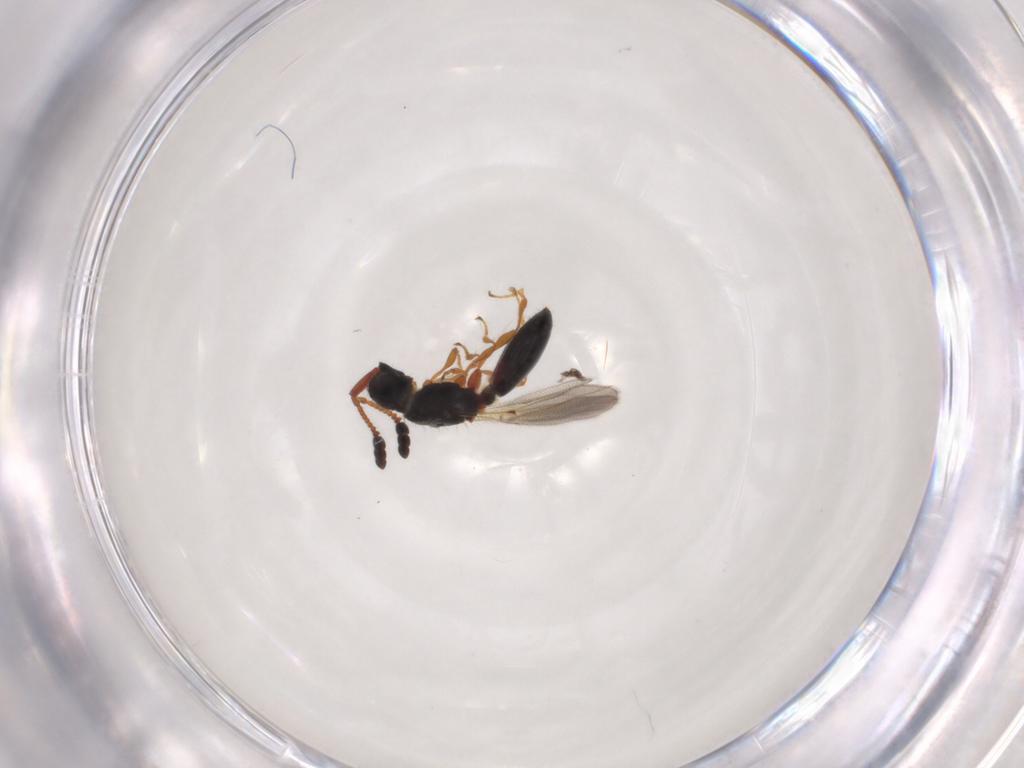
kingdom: Animalia
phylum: Arthropoda
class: Insecta
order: Hymenoptera
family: Diapriidae
